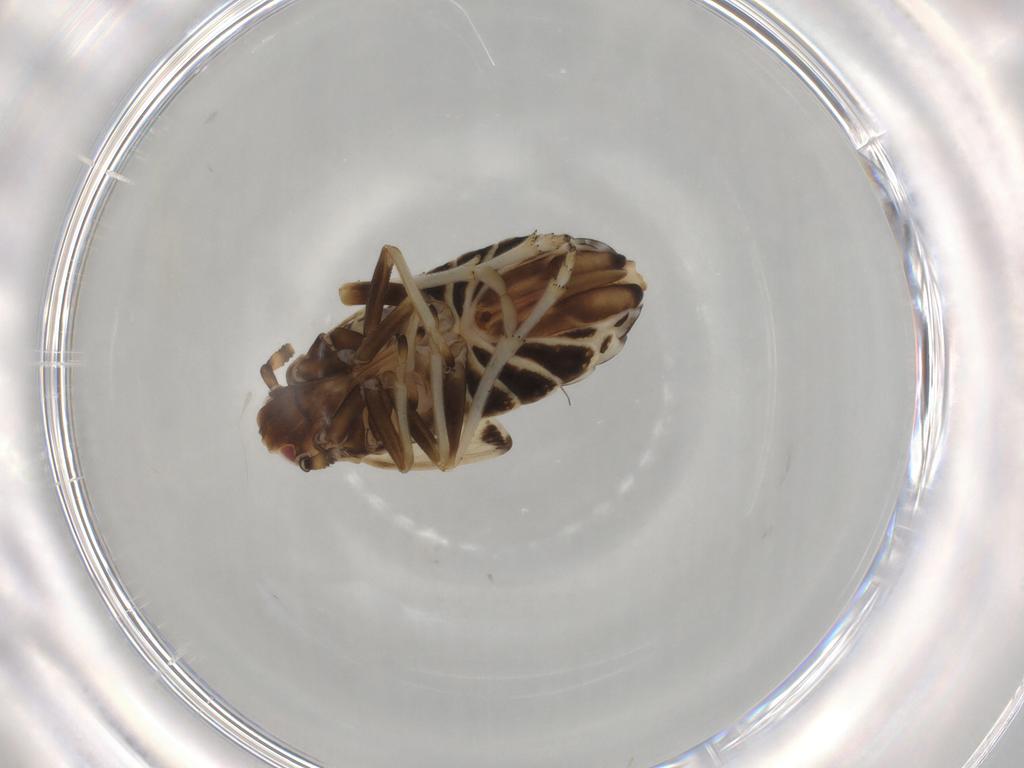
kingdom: Animalia
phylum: Arthropoda
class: Insecta
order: Hemiptera
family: Delphacidae
